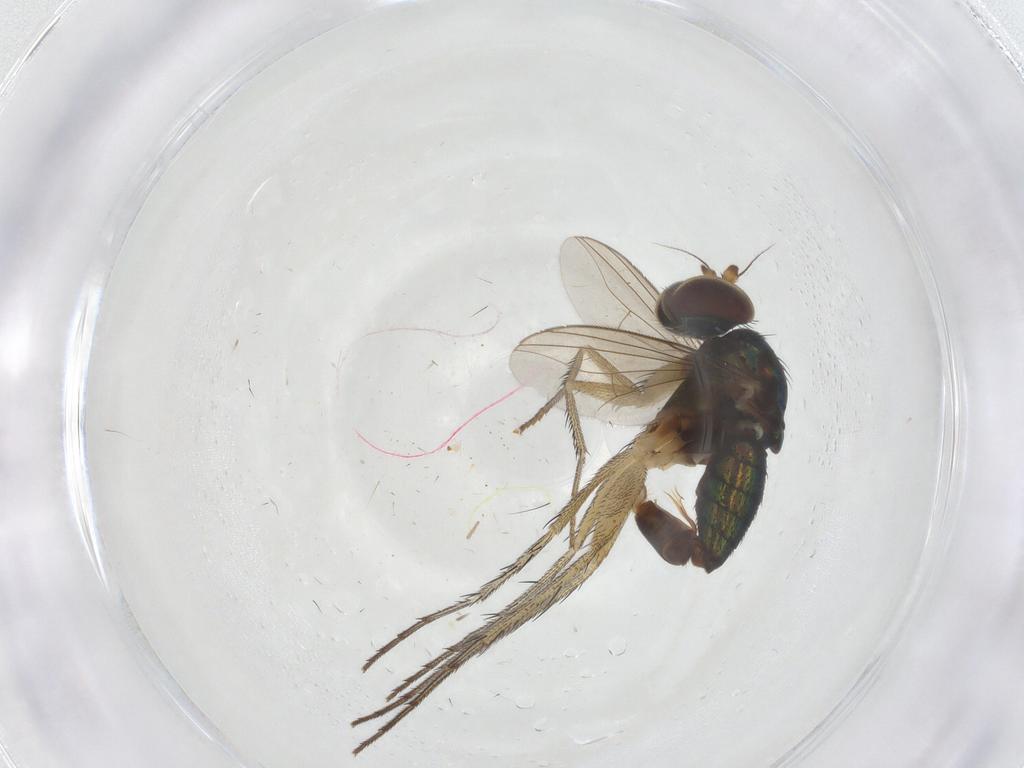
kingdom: Animalia
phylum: Arthropoda
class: Insecta
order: Diptera
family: Dolichopodidae
